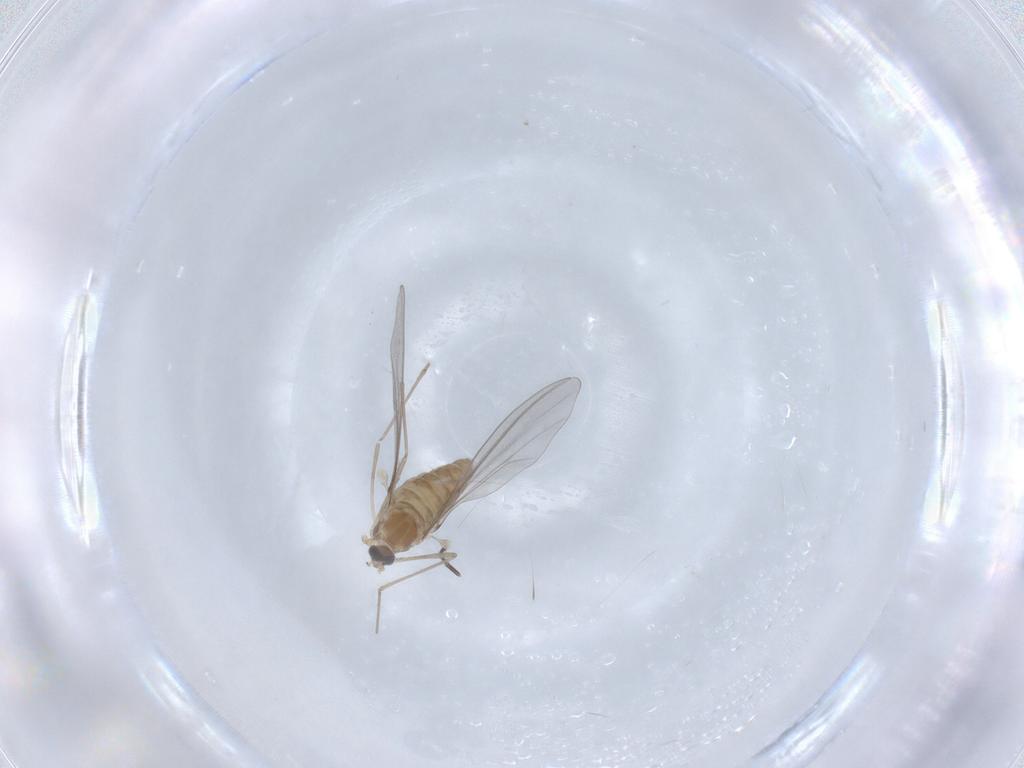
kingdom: Animalia
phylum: Arthropoda
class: Insecta
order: Diptera
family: Cecidomyiidae
